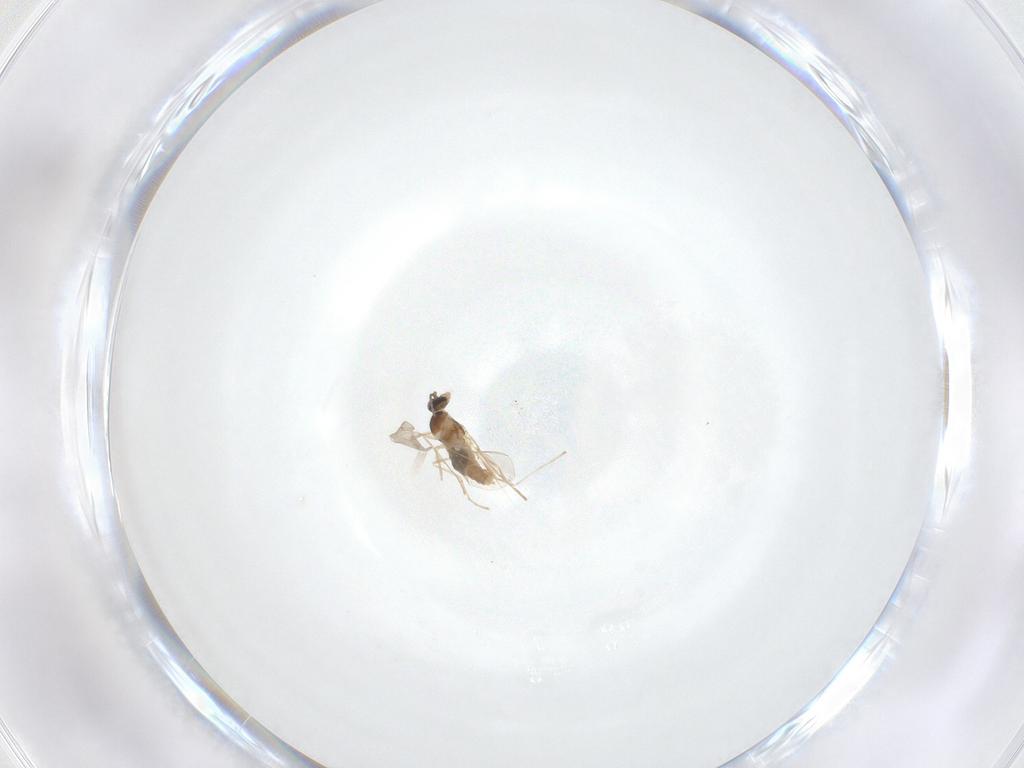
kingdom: Animalia
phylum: Arthropoda
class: Insecta
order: Diptera
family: Cecidomyiidae
